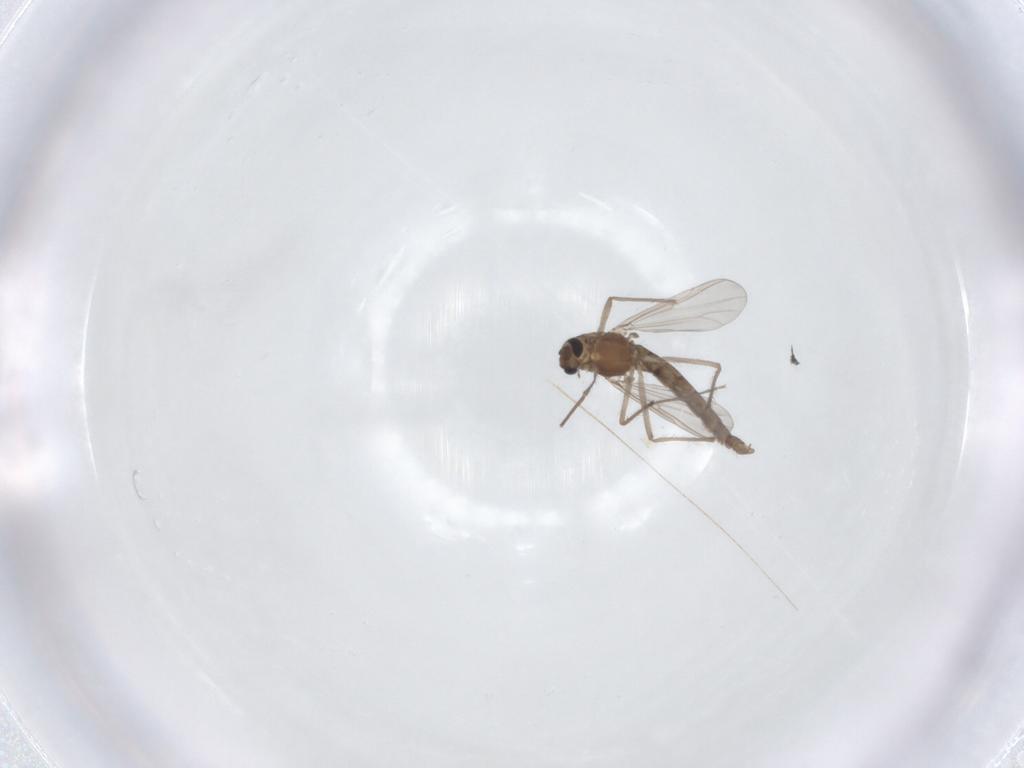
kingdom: Animalia
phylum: Arthropoda
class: Insecta
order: Diptera
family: Chironomidae
